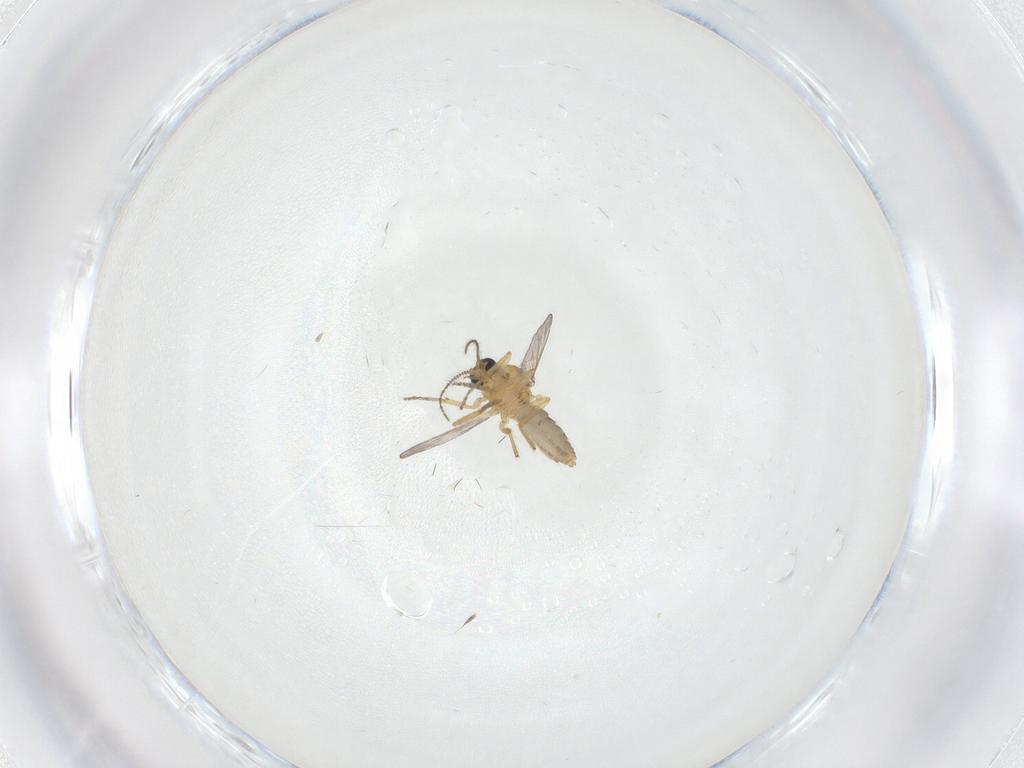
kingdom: Animalia
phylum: Arthropoda
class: Insecta
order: Diptera
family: Ceratopogonidae
